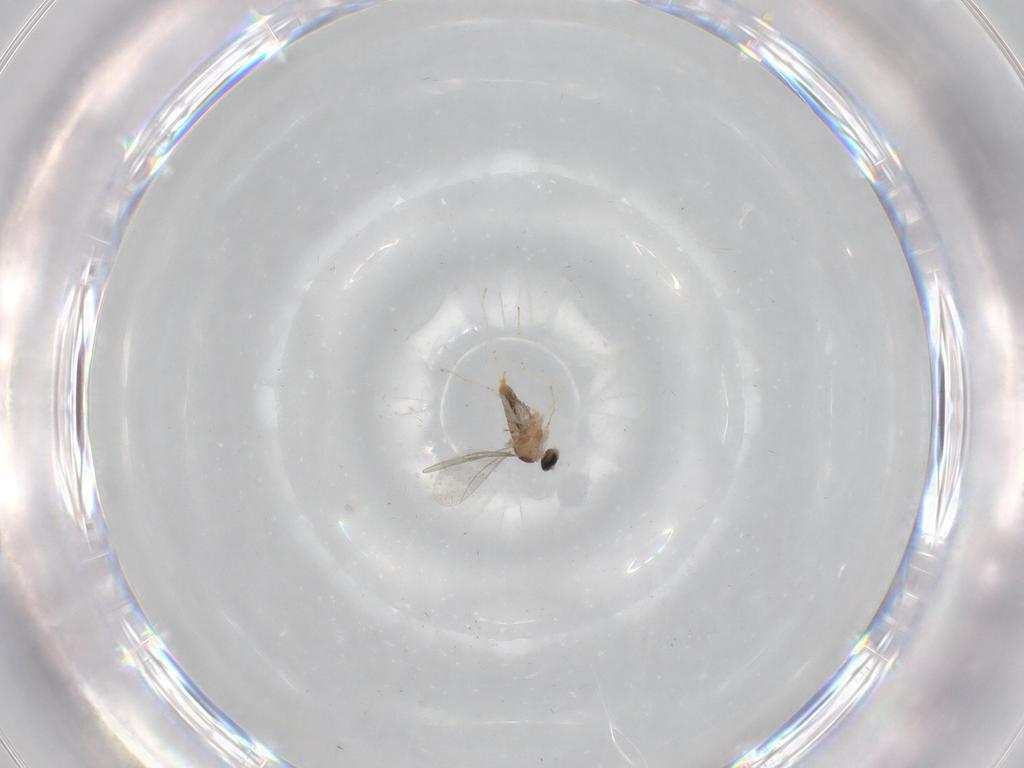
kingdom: Animalia
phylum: Arthropoda
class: Insecta
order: Diptera
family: Cecidomyiidae
